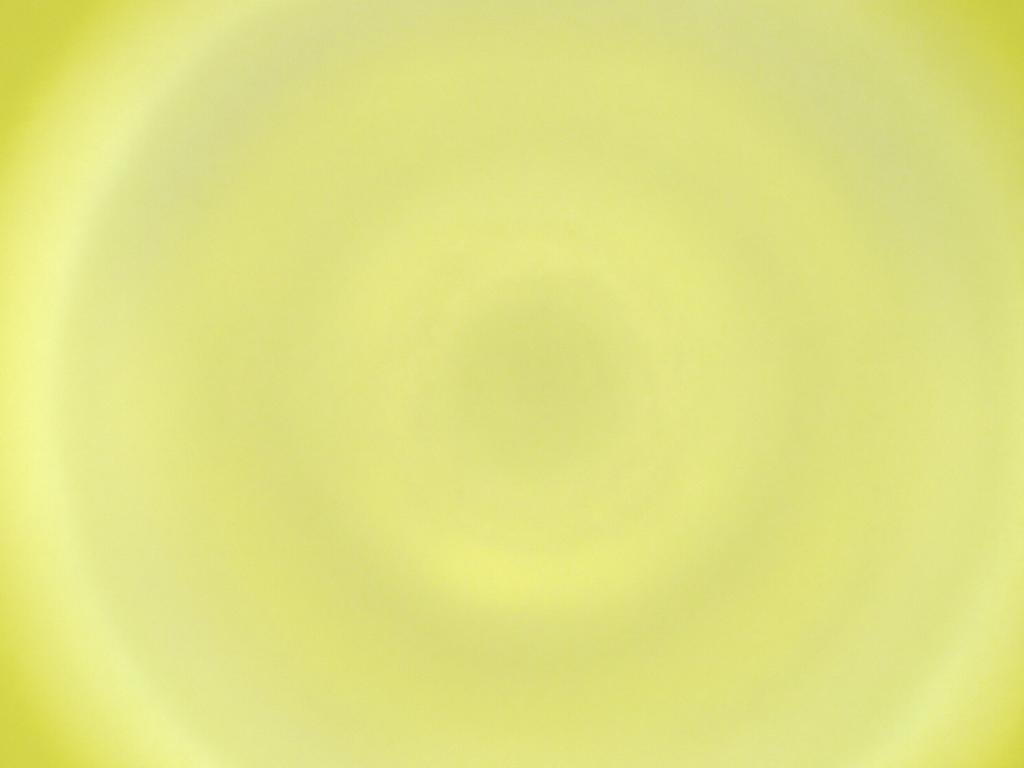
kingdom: Animalia
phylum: Arthropoda
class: Insecta
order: Diptera
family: Cecidomyiidae
